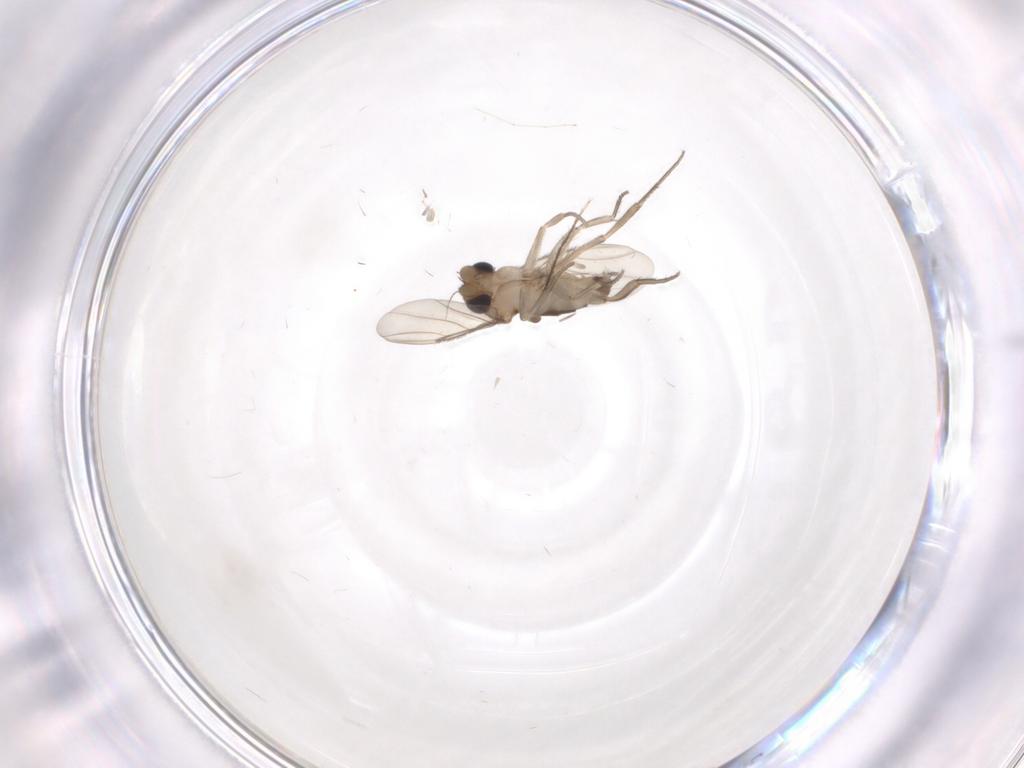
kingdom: Animalia
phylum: Arthropoda
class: Insecta
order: Diptera
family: Phoridae
